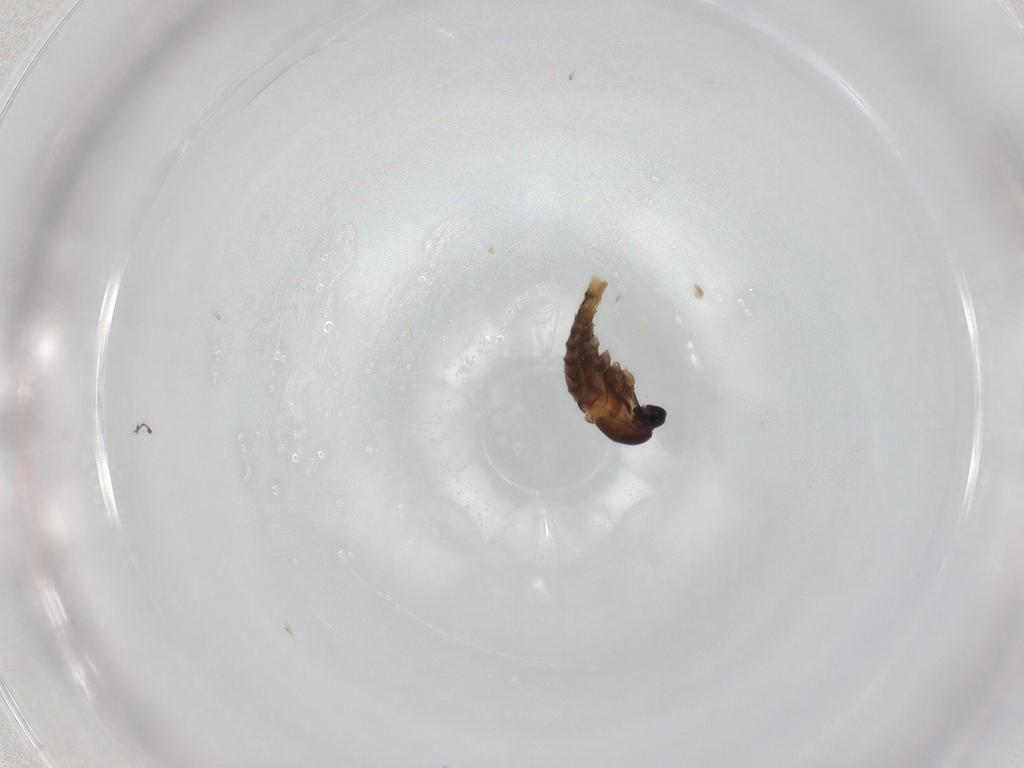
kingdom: Animalia
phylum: Arthropoda
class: Insecta
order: Diptera
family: Cecidomyiidae
